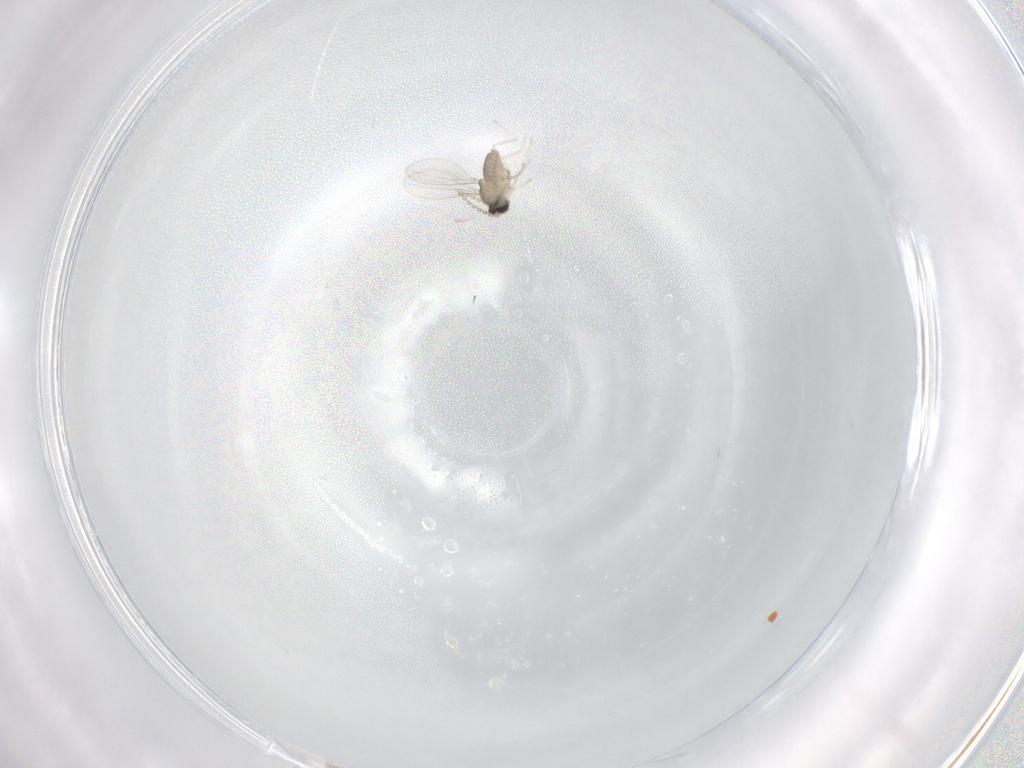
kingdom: Animalia
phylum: Arthropoda
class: Insecta
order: Diptera
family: Cecidomyiidae
